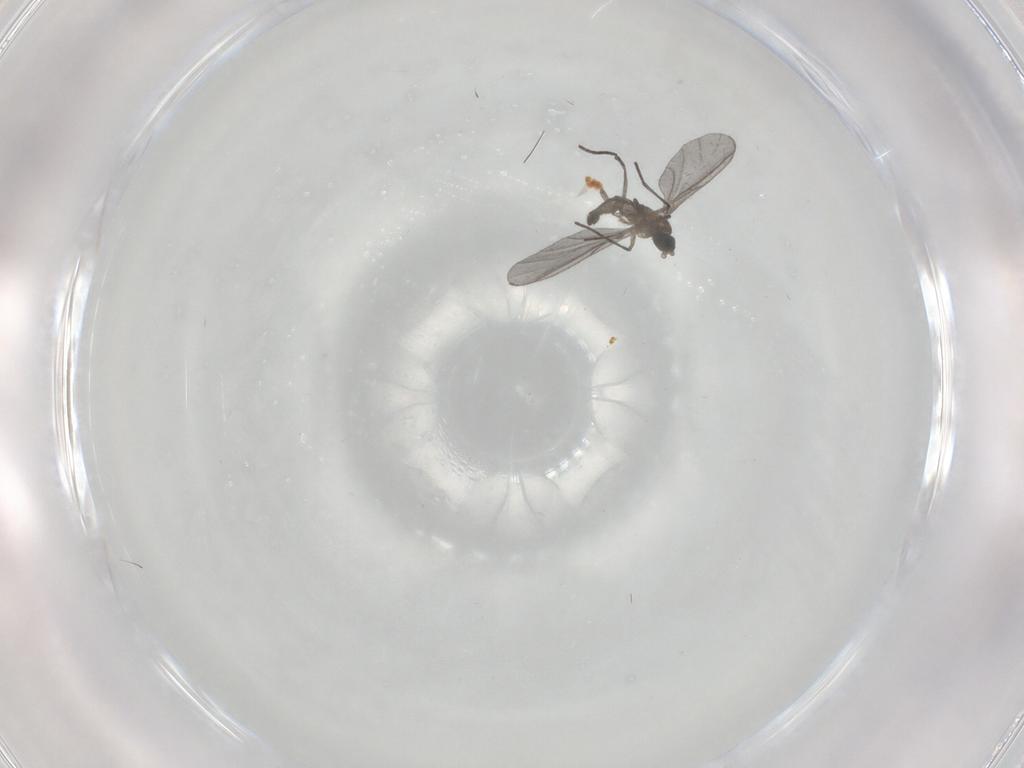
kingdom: Animalia
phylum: Arthropoda
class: Insecta
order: Diptera
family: Chironomidae
